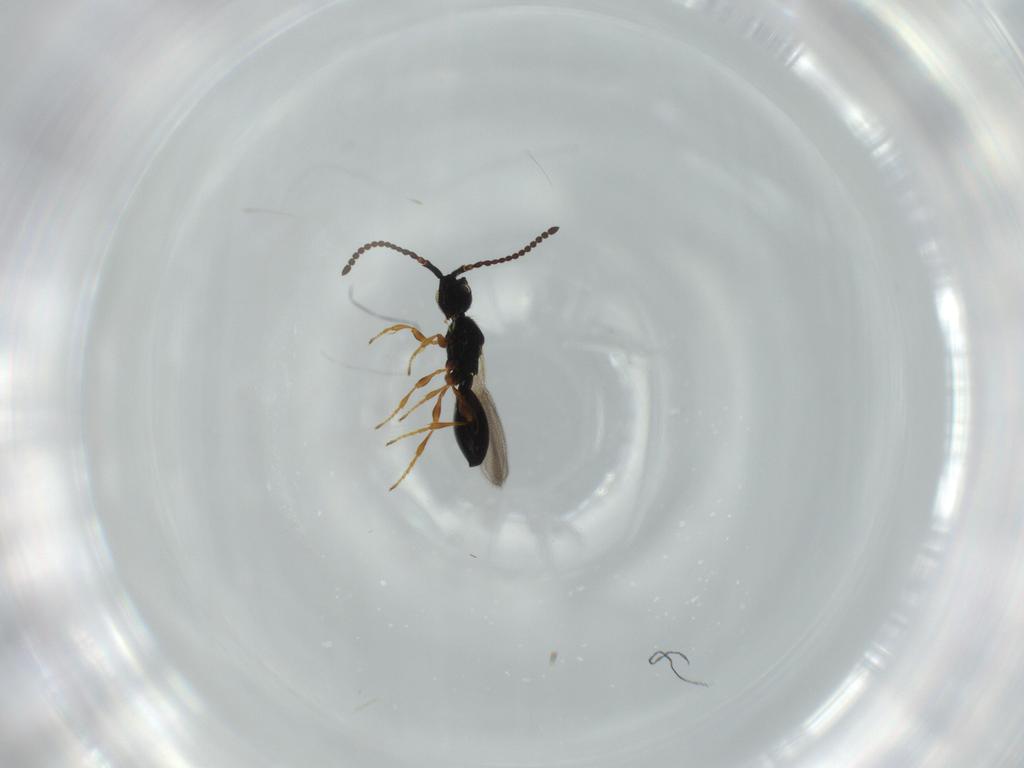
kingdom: Animalia
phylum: Arthropoda
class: Insecta
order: Hymenoptera
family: Diapriidae
